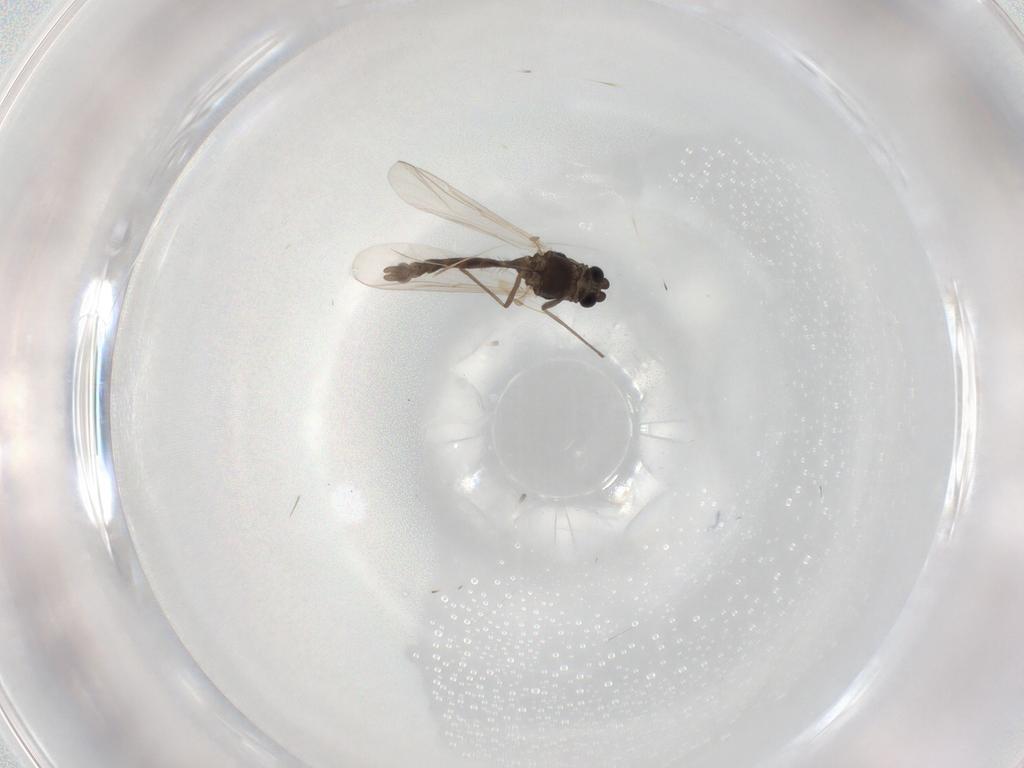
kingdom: Animalia
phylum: Arthropoda
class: Insecta
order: Diptera
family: Chironomidae
